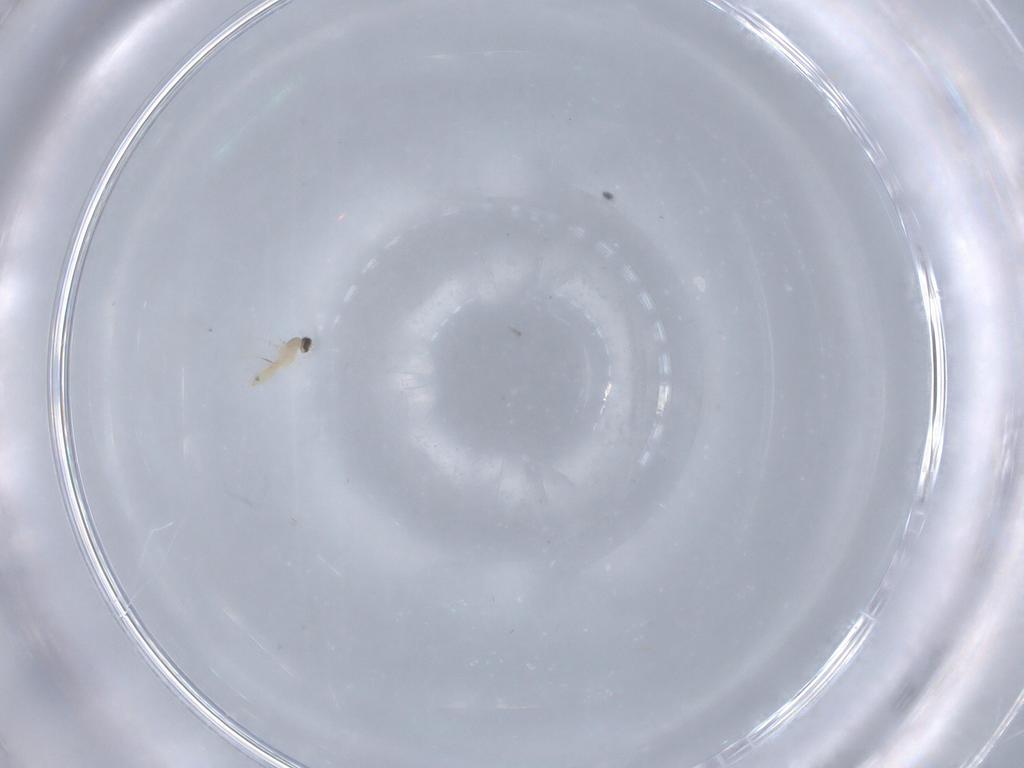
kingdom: Animalia
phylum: Arthropoda
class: Insecta
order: Diptera
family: Cecidomyiidae
